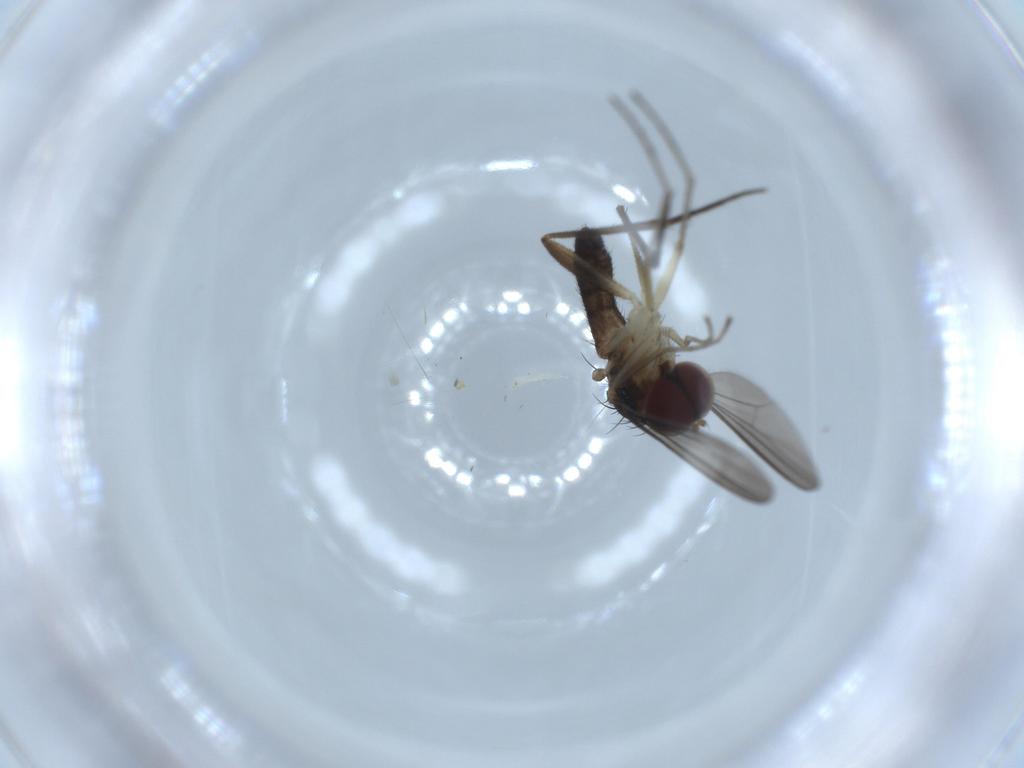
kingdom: Animalia
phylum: Arthropoda
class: Insecta
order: Diptera
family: Dolichopodidae
